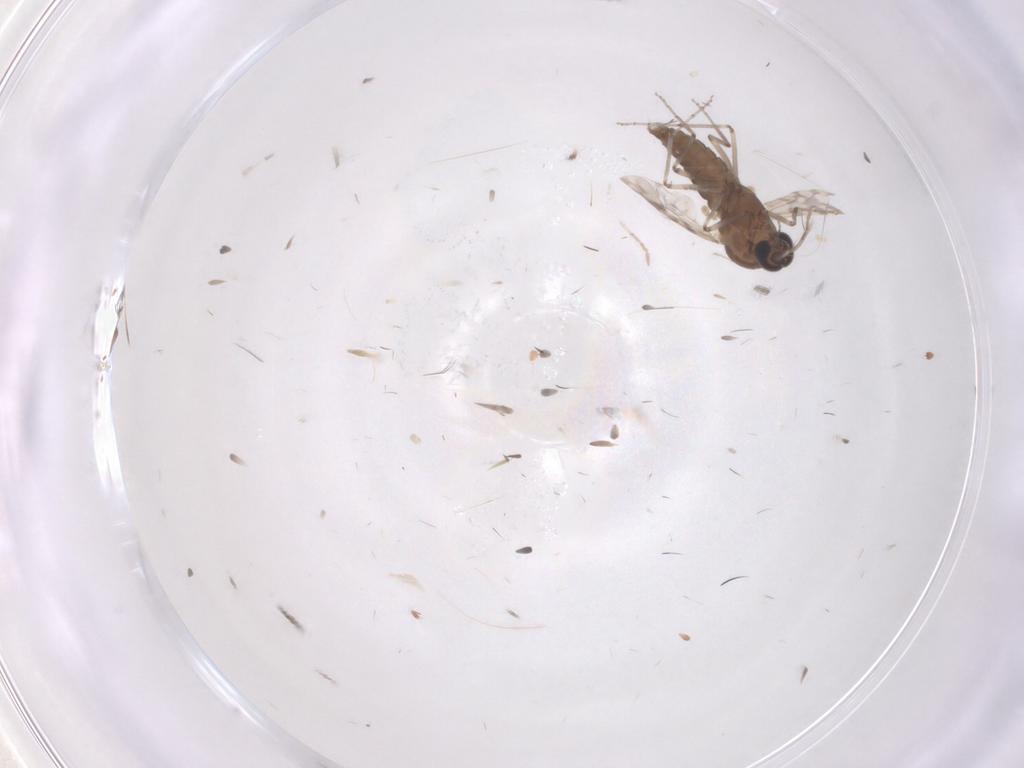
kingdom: Animalia
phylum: Arthropoda
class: Insecta
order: Diptera
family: Chironomidae
